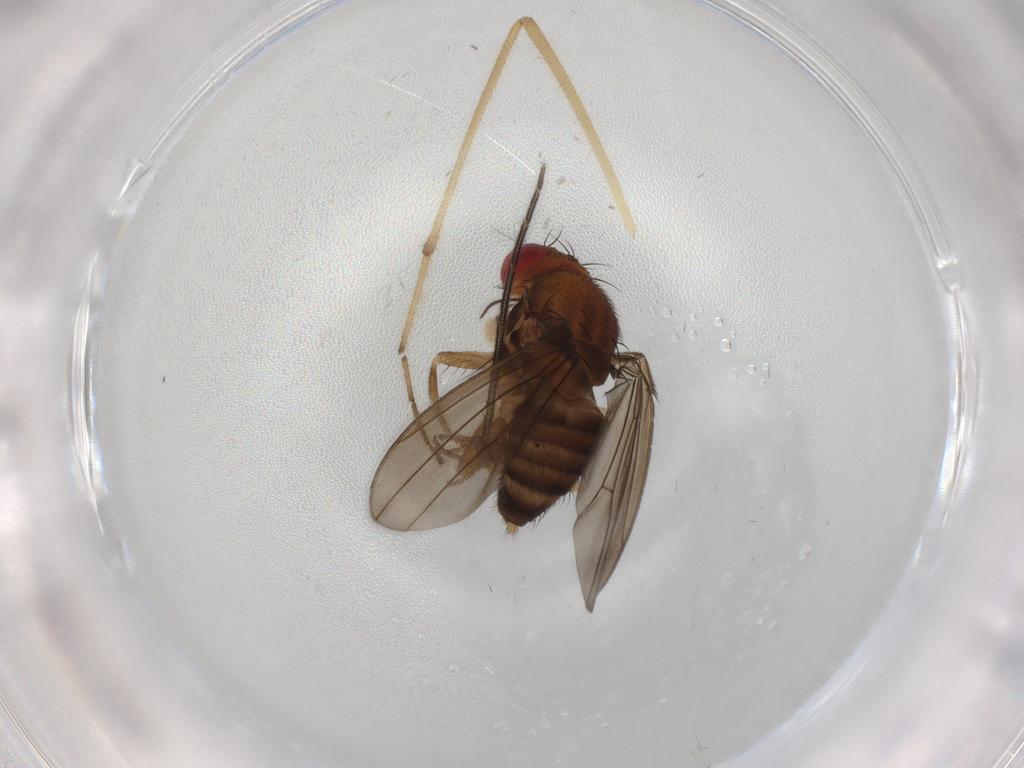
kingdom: Animalia
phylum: Arthropoda
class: Insecta
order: Diptera
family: Drosophilidae
